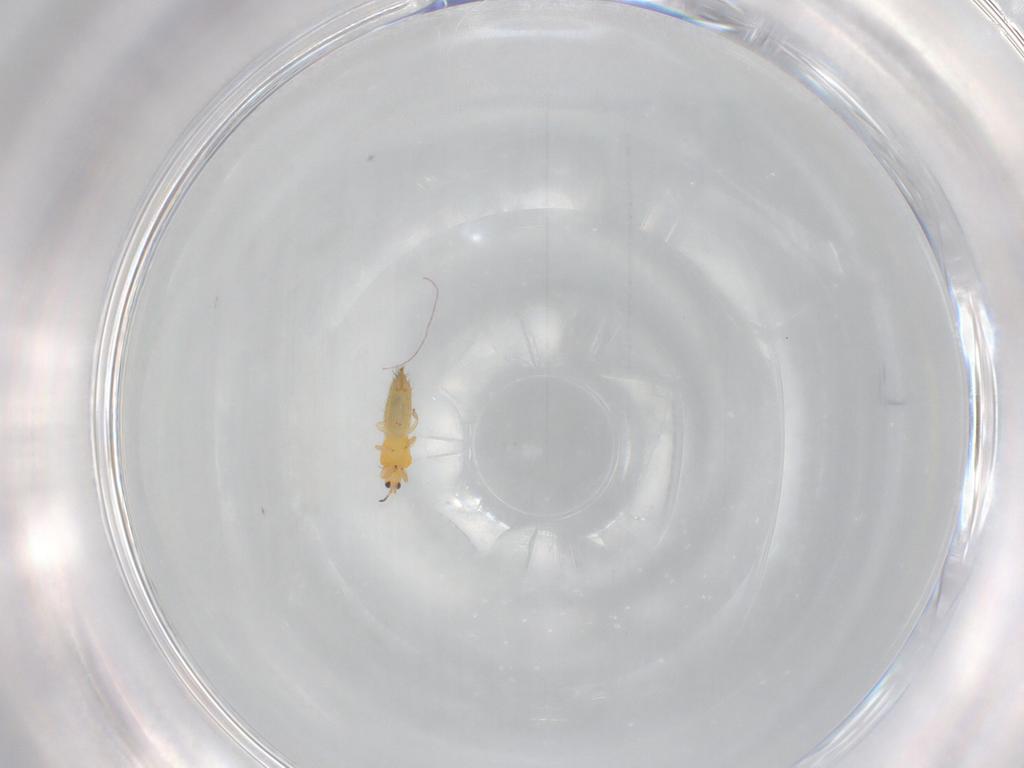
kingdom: Animalia
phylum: Arthropoda
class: Insecta
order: Thysanoptera
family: Thripidae
